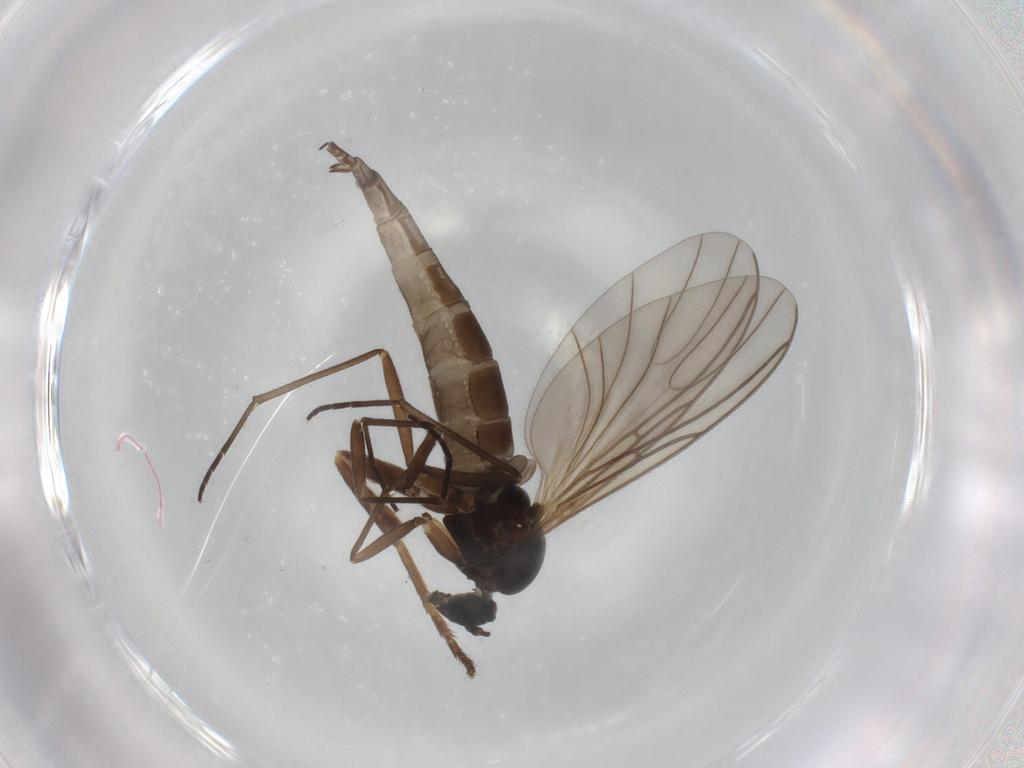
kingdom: Animalia
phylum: Arthropoda
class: Insecta
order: Diptera
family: Sciaridae
